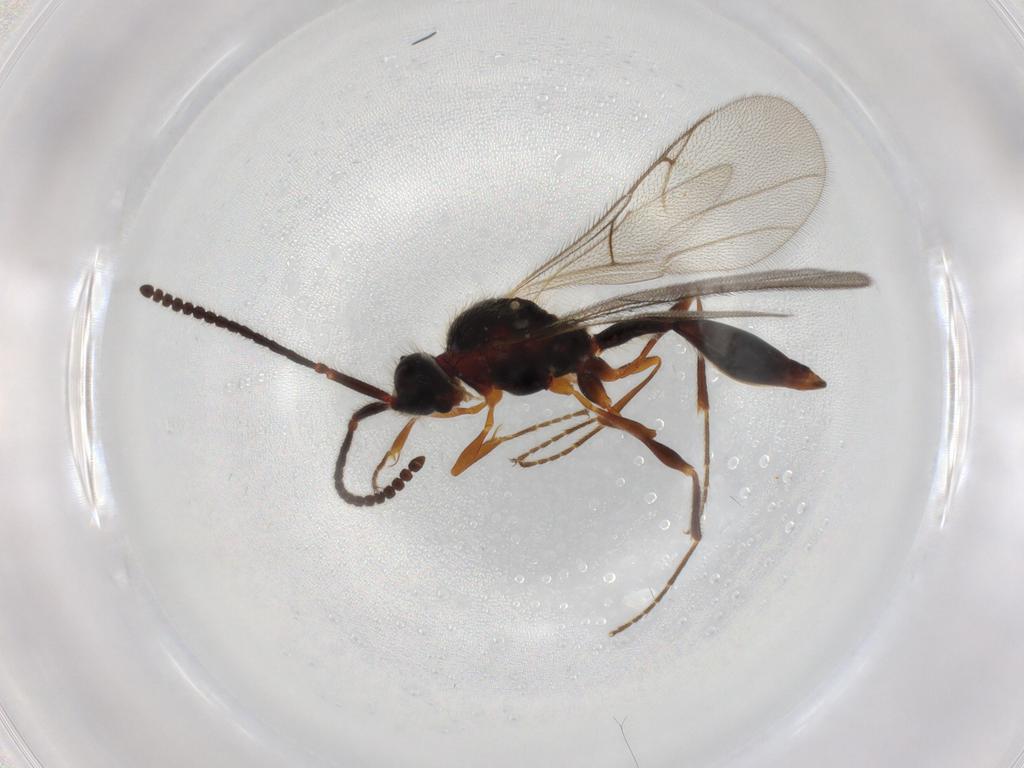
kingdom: Animalia
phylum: Arthropoda
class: Insecta
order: Hymenoptera
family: Diapriidae
